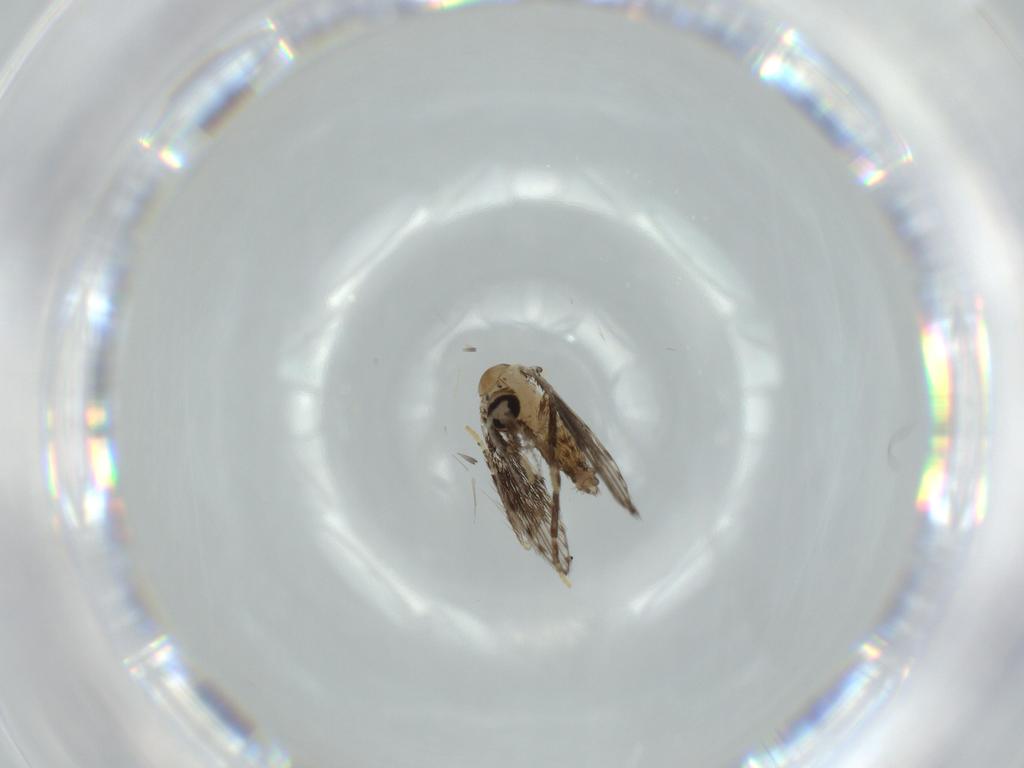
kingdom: Animalia
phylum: Arthropoda
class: Insecta
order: Diptera
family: Psychodidae
